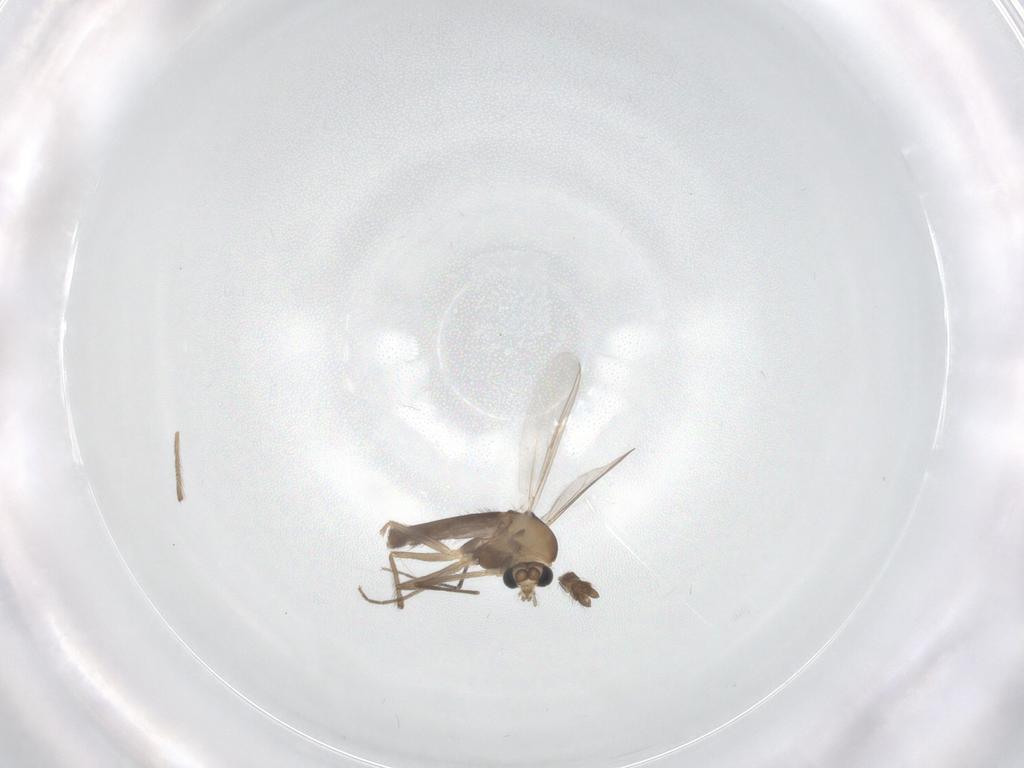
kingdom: Animalia
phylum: Arthropoda
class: Insecta
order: Diptera
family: Chironomidae
